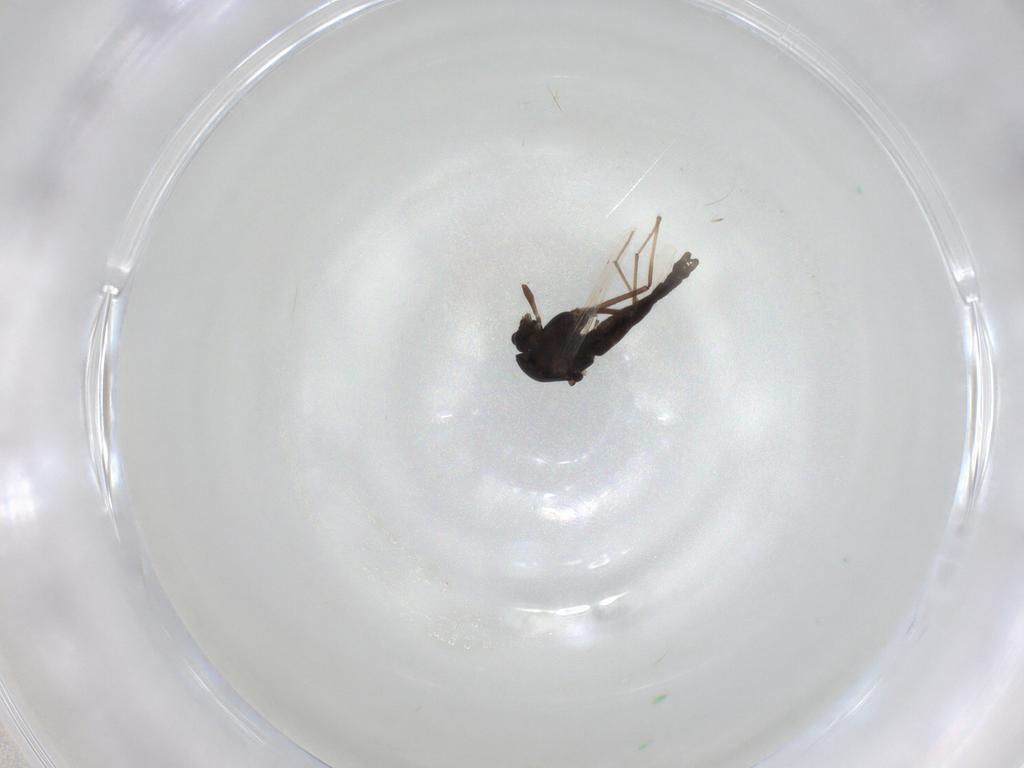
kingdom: Animalia
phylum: Arthropoda
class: Insecta
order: Diptera
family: Chironomidae
